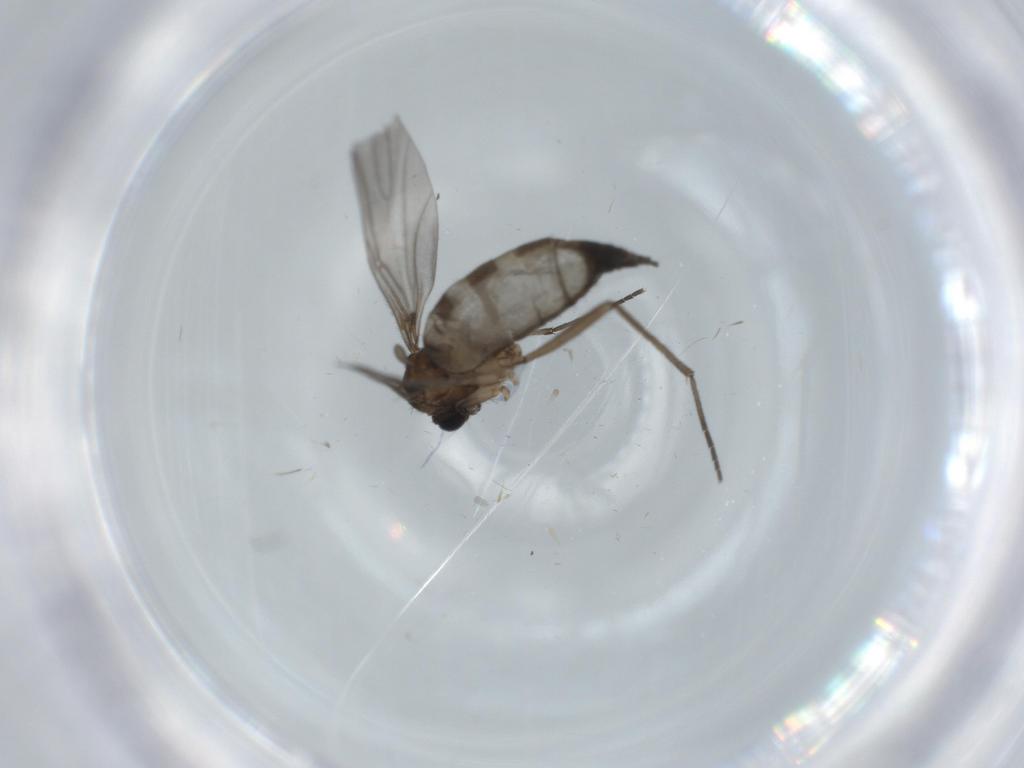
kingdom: Animalia
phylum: Arthropoda
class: Insecta
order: Diptera
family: Sciaridae
